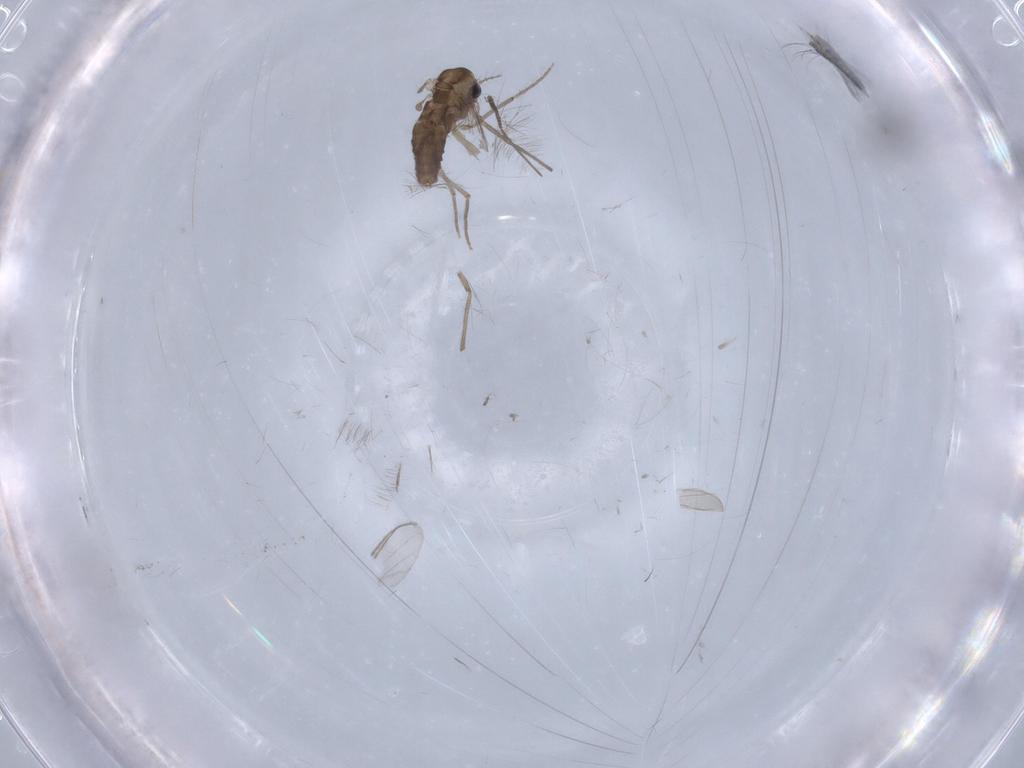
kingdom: Animalia
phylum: Arthropoda
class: Insecta
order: Diptera
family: Chironomidae
